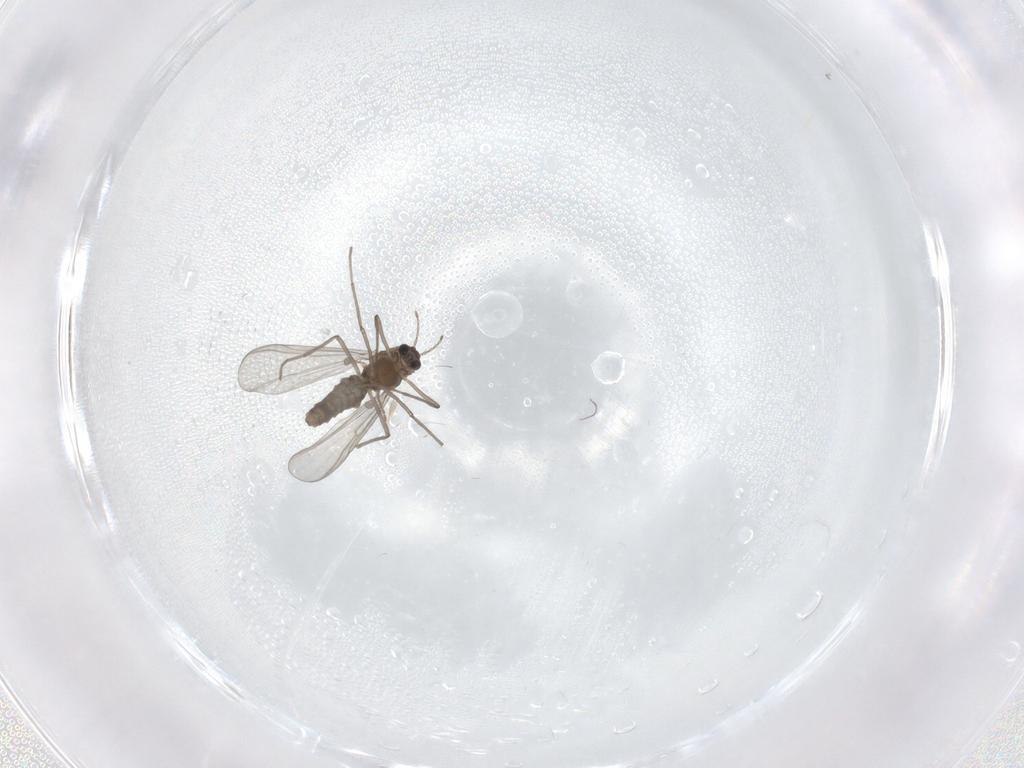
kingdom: Animalia
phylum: Arthropoda
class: Insecta
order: Diptera
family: Chironomidae
